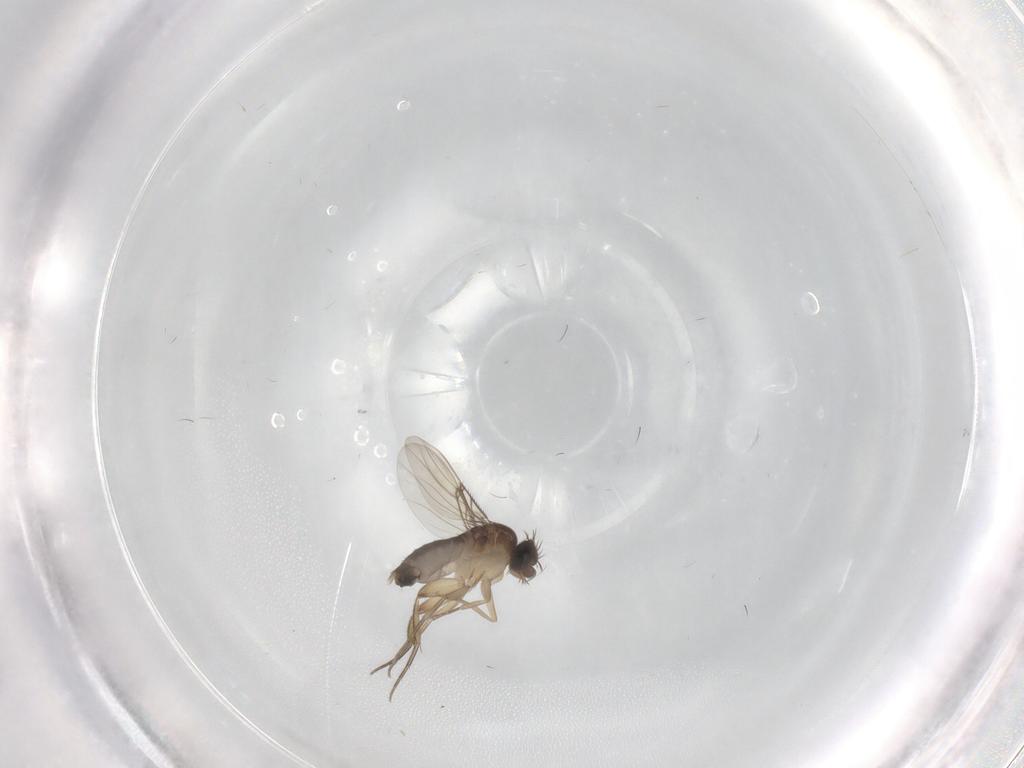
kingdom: Animalia
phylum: Arthropoda
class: Insecta
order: Diptera
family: Phoridae
